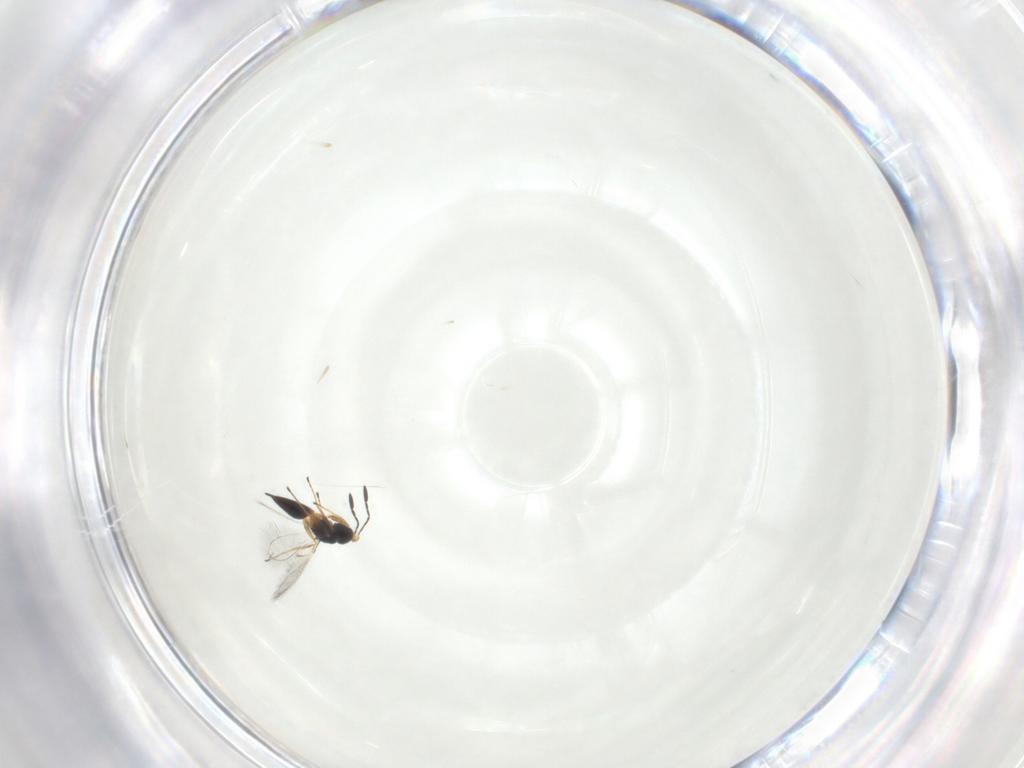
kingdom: Animalia
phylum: Arthropoda
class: Insecta
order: Hymenoptera
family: Mymaridae
